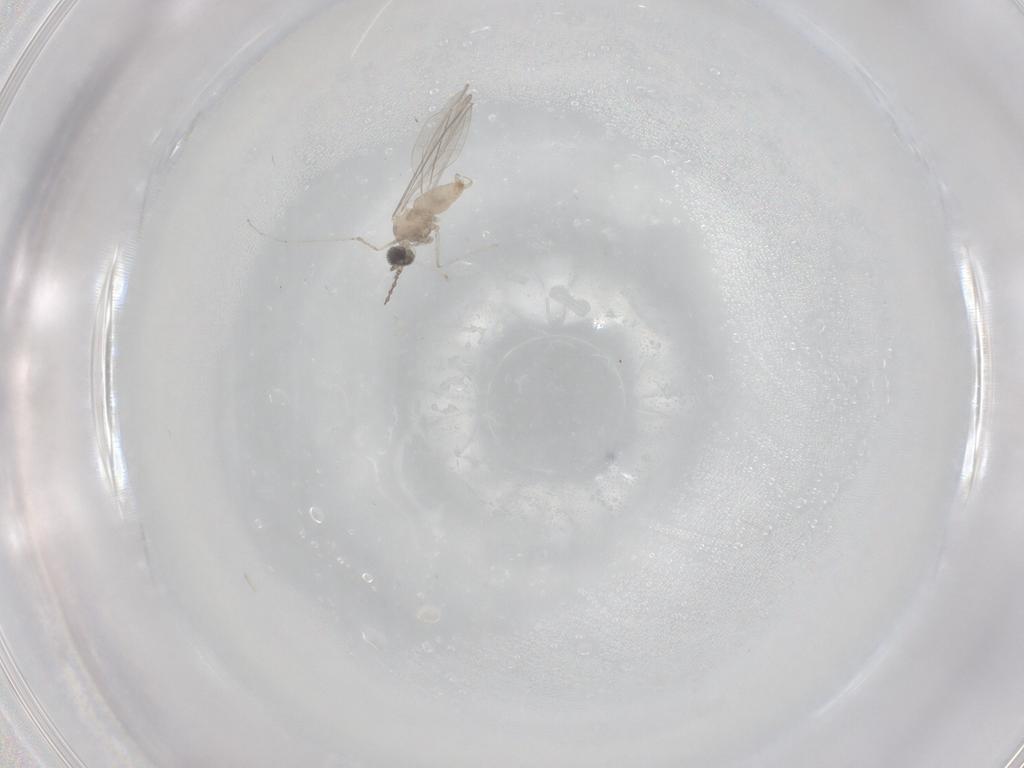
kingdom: Animalia
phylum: Arthropoda
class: Insecta
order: Diptera
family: Cecidomyiidae
